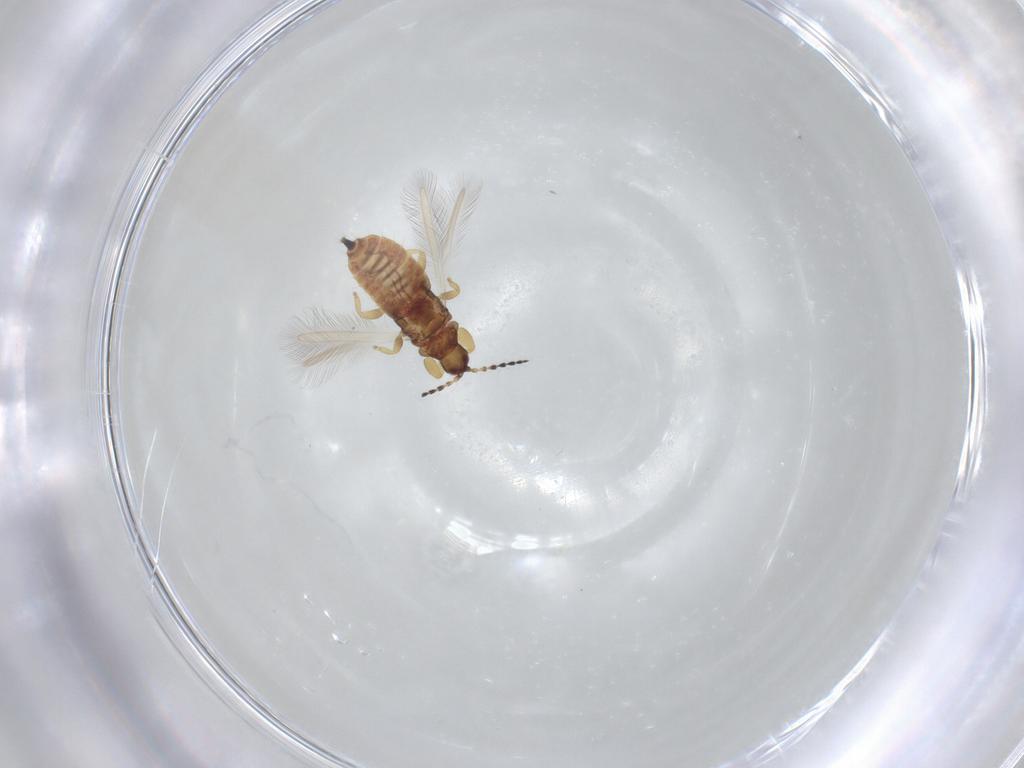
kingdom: Animalia
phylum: Arthropoda
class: Insecta
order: Thysanoptera
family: Phlaeothripidae
